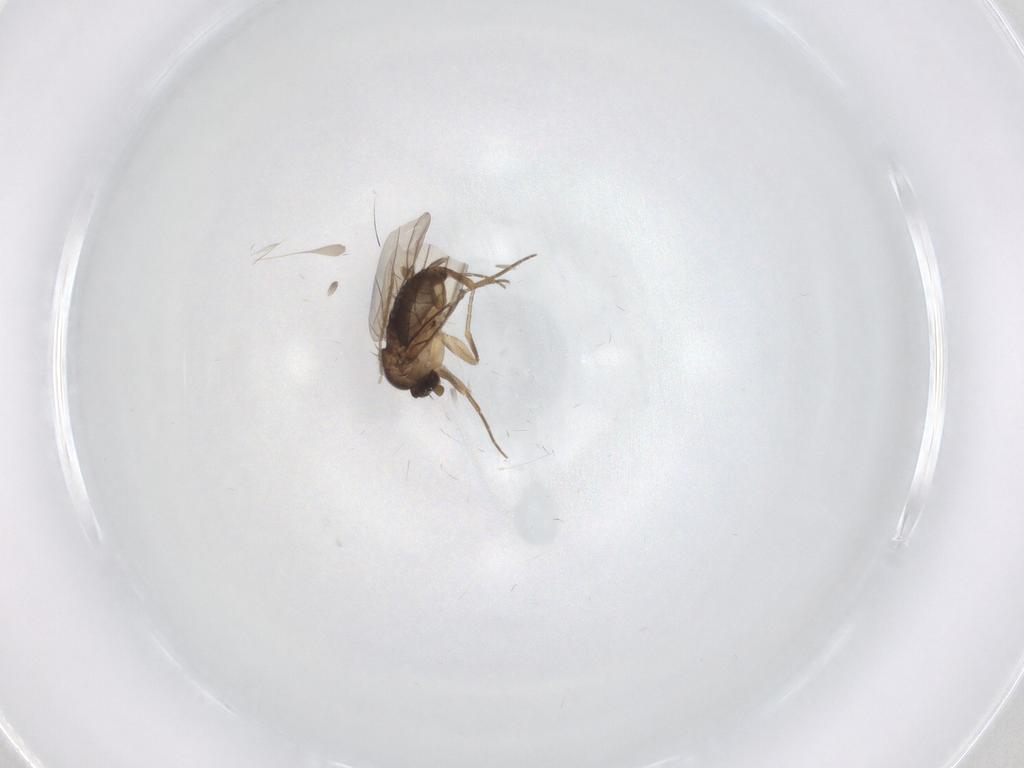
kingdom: Animalia
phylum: Arthropoda
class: Insecta
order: Diptera
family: Phoridae
